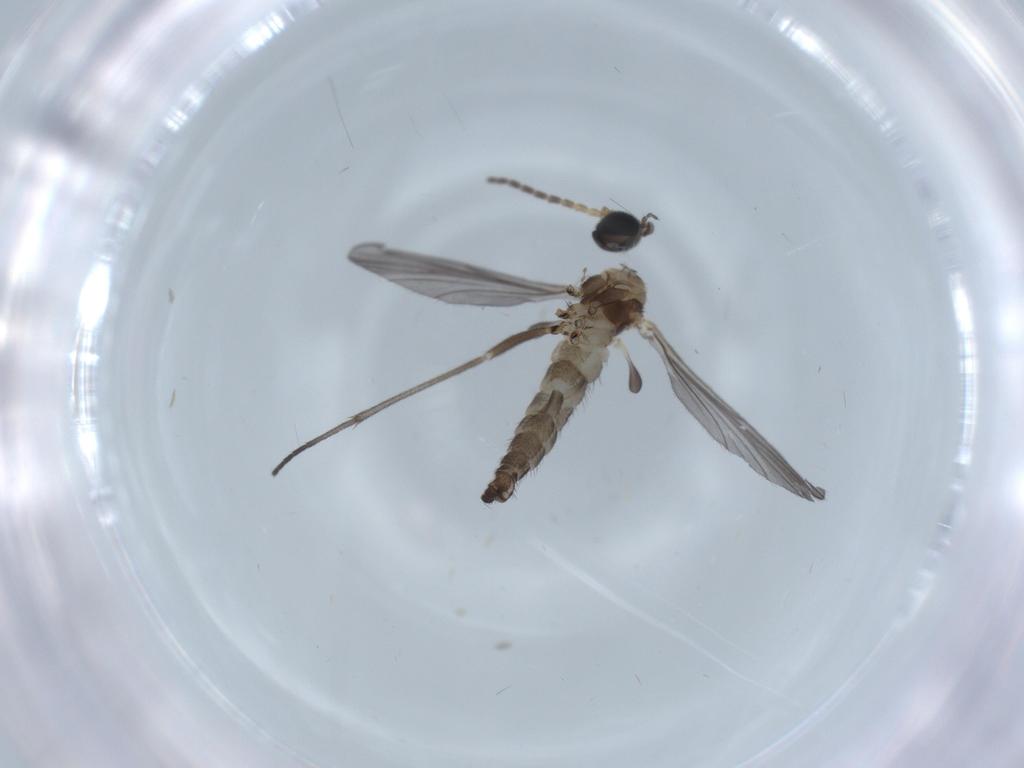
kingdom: Animalia
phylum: Arthropoda
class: Insecta
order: Diptera
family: Sciaridae
